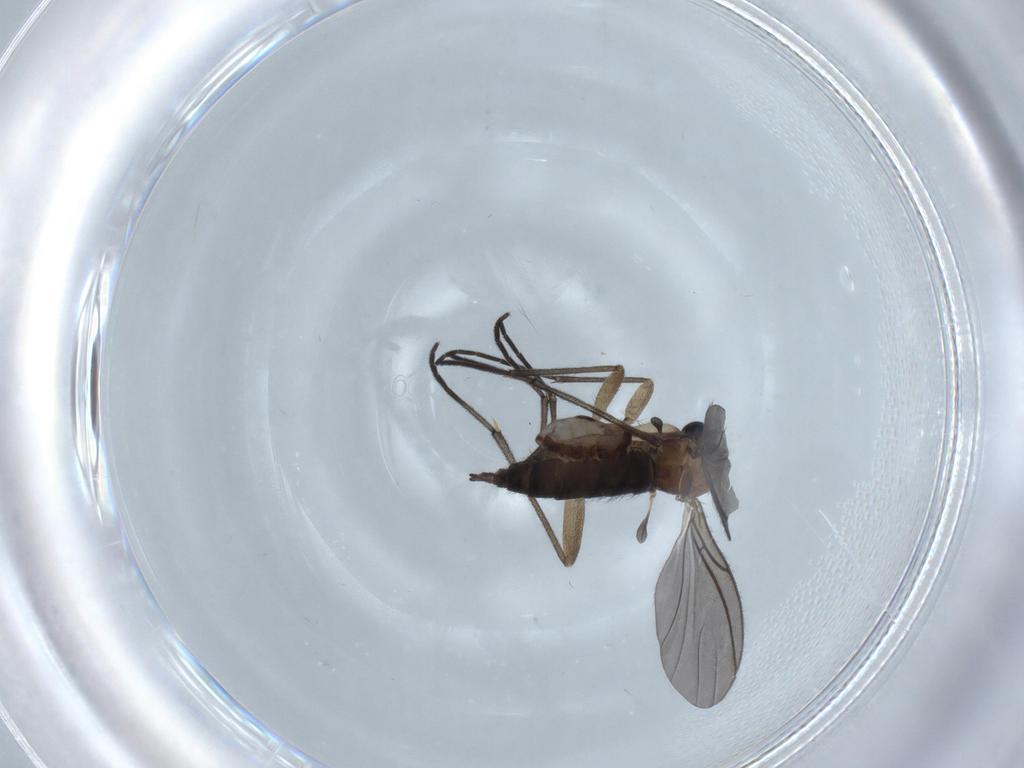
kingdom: Animalia
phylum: Arthropoda
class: Insecta
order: Diptera
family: Sciaridae
